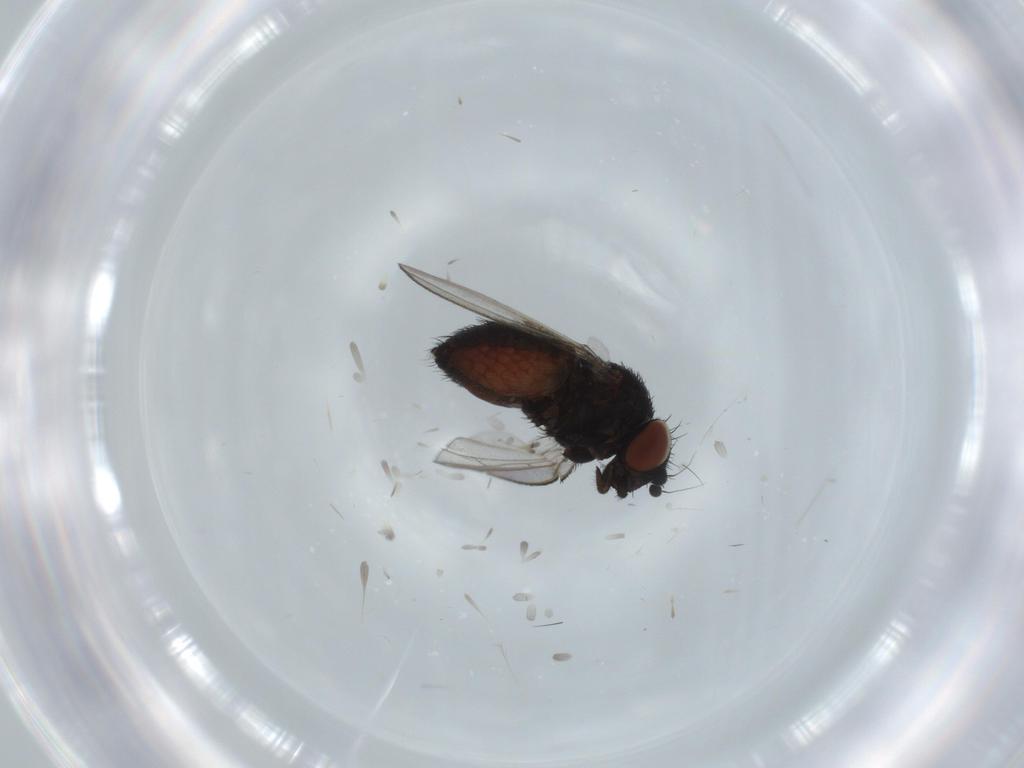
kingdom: Animalia
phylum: Arthropoda
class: Insecta
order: Diptera
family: Milichiidae
